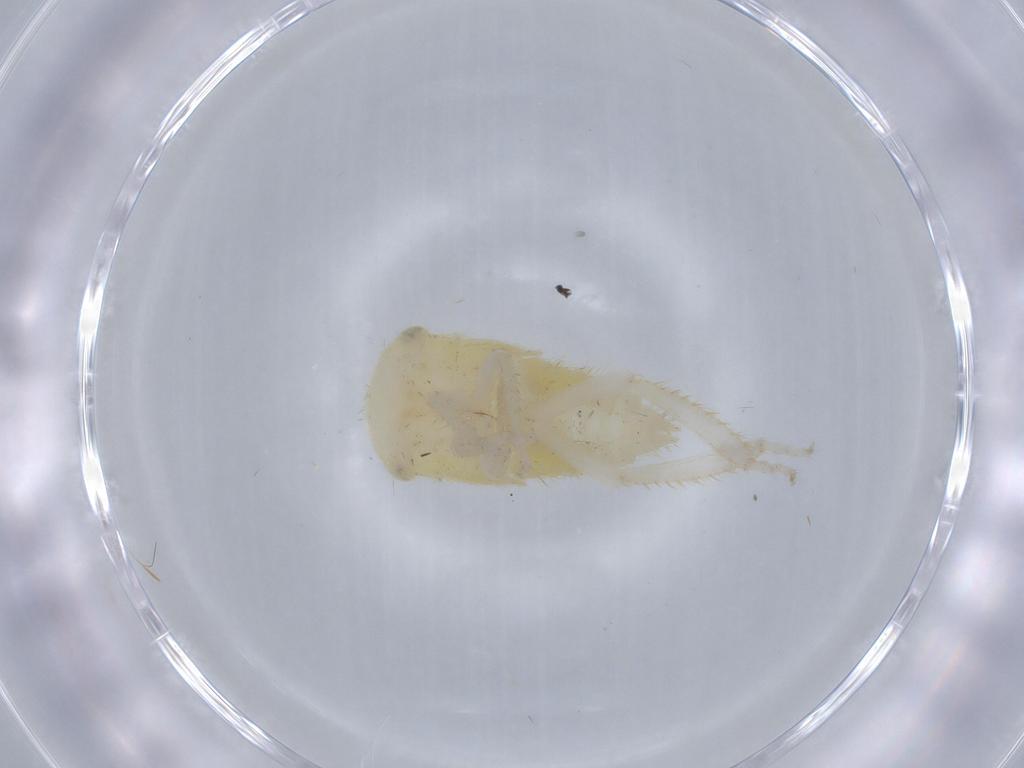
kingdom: Animalia
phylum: Arthropoda
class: Insecta
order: Hemiptera
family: Cicadellidae
